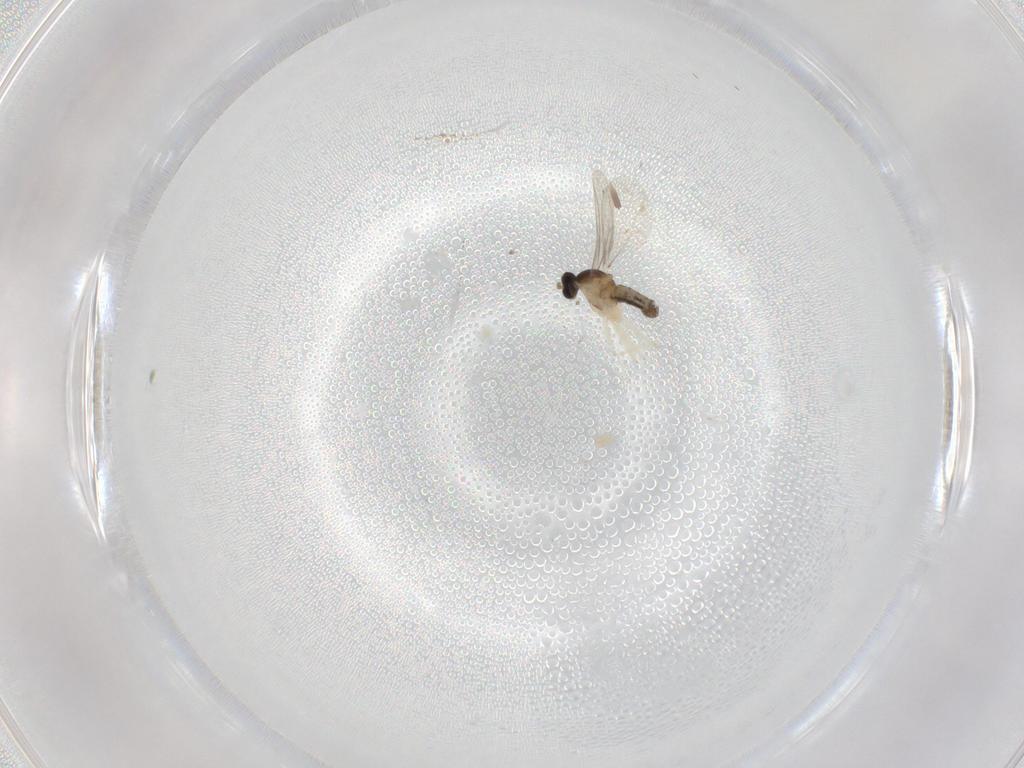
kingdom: Animalia
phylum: Arthropoda
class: Insecta
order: Diptera
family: Cecidomyiidae
